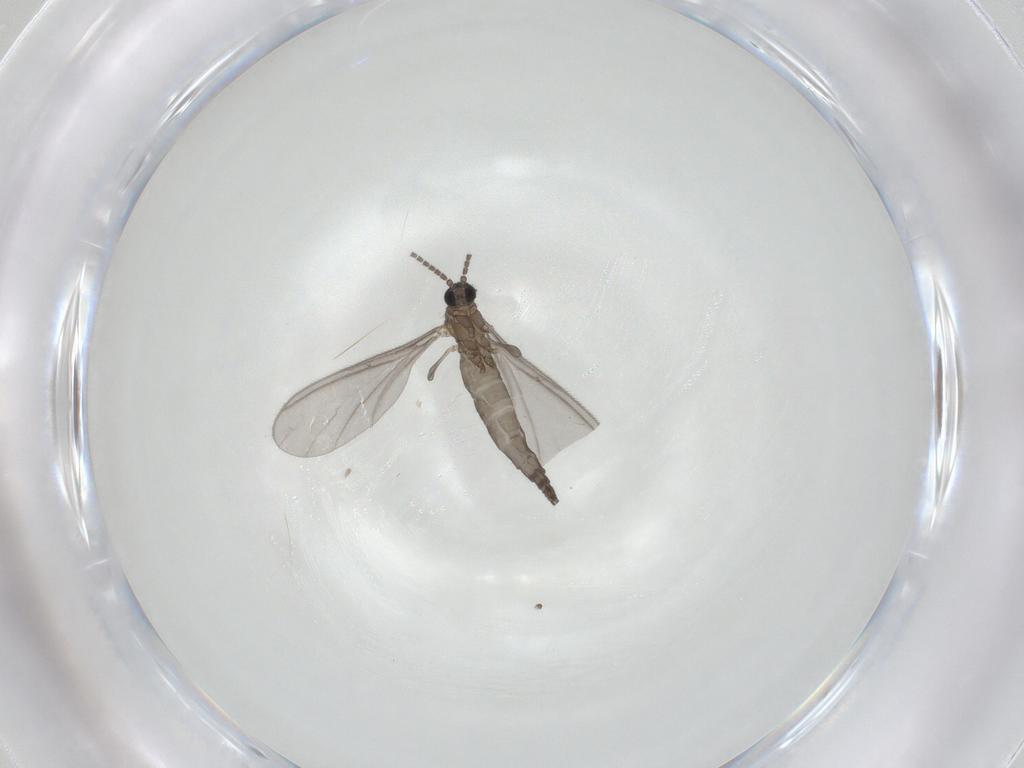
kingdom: Animalia
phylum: Arthropoda
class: Insecta
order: Diptera
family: Sciaridae
